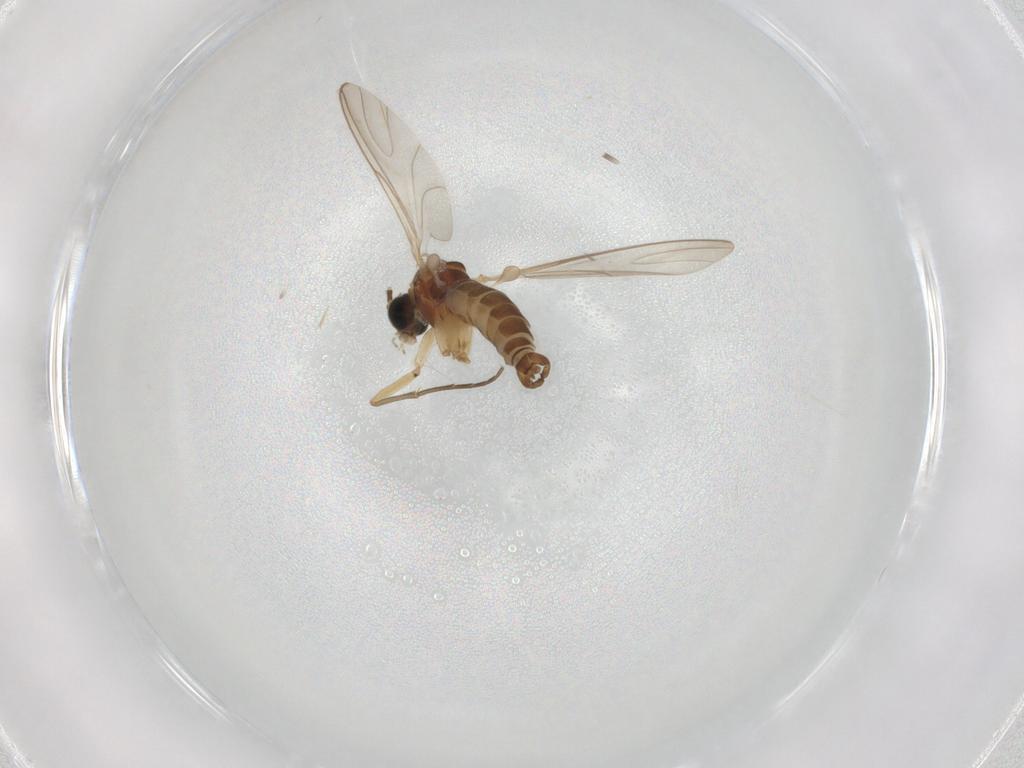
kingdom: Animalia
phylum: Arthropoda
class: Insecta
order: Diptera
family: Sciaridae
